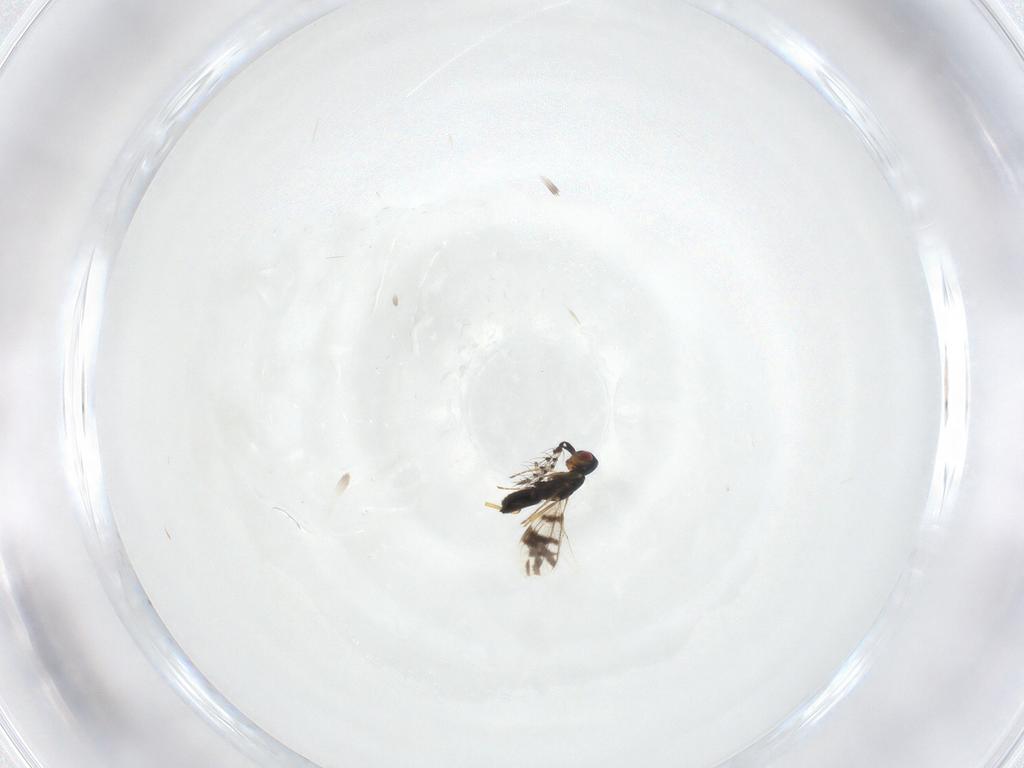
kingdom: Animalia
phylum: Arthropoda
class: Insecta
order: Hymenoptera
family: Eulophidae
